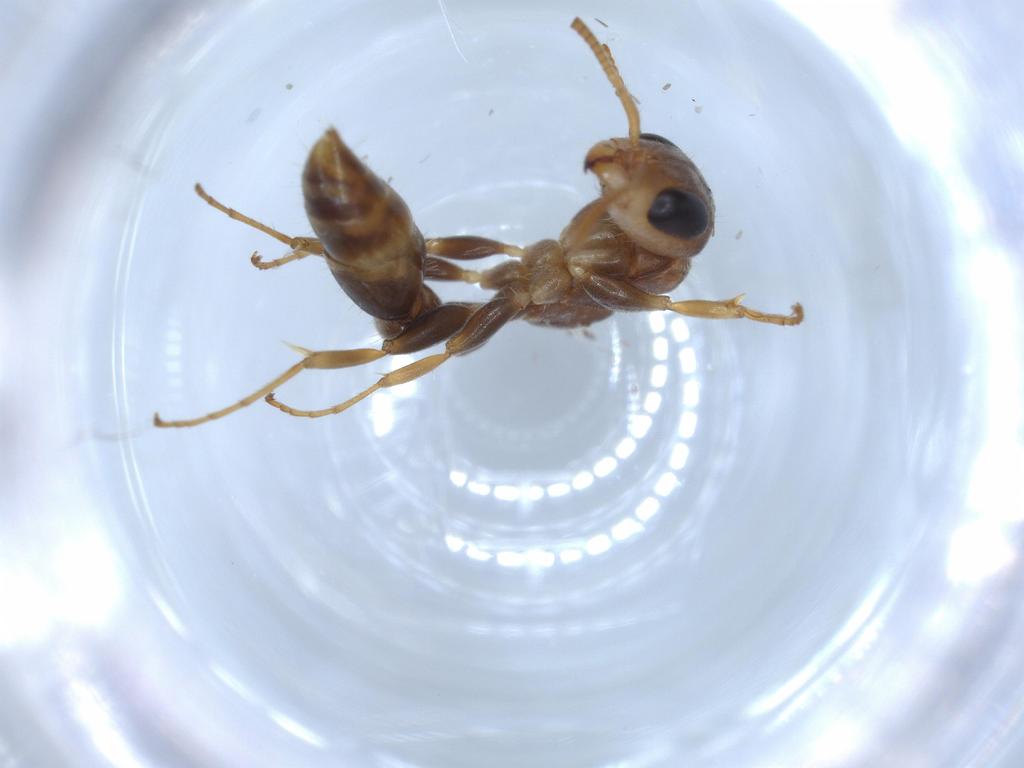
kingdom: Animalia
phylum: Arthropoda
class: Insecta
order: Hymenoptera
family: Formicidae
